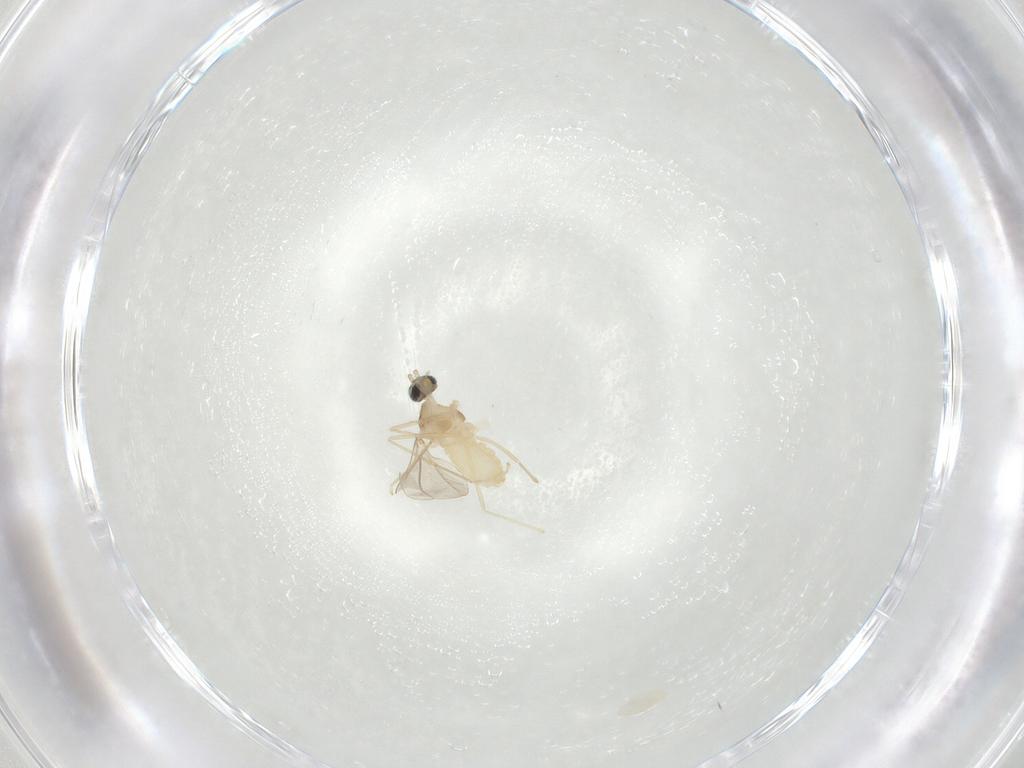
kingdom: Animalia
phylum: Arthropoda
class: Insecta
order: Diptera
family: Cecidomyiidae
